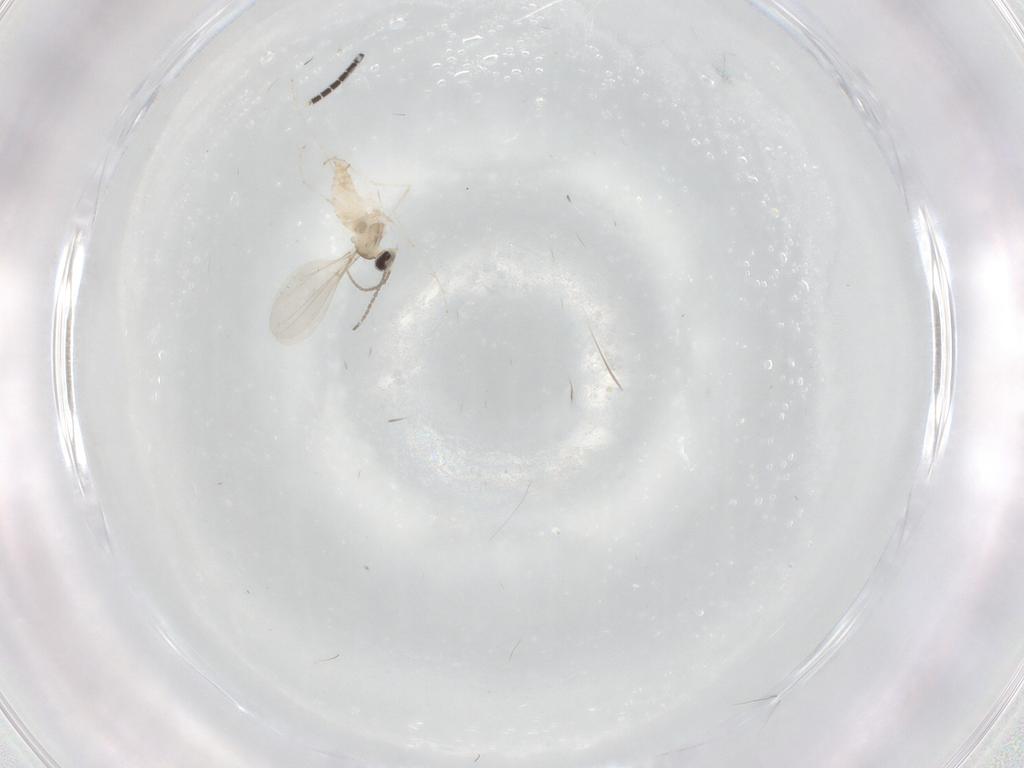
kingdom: Animalia
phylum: Arthropoda
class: Insecta
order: Diptera
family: Cecidomyiidae
